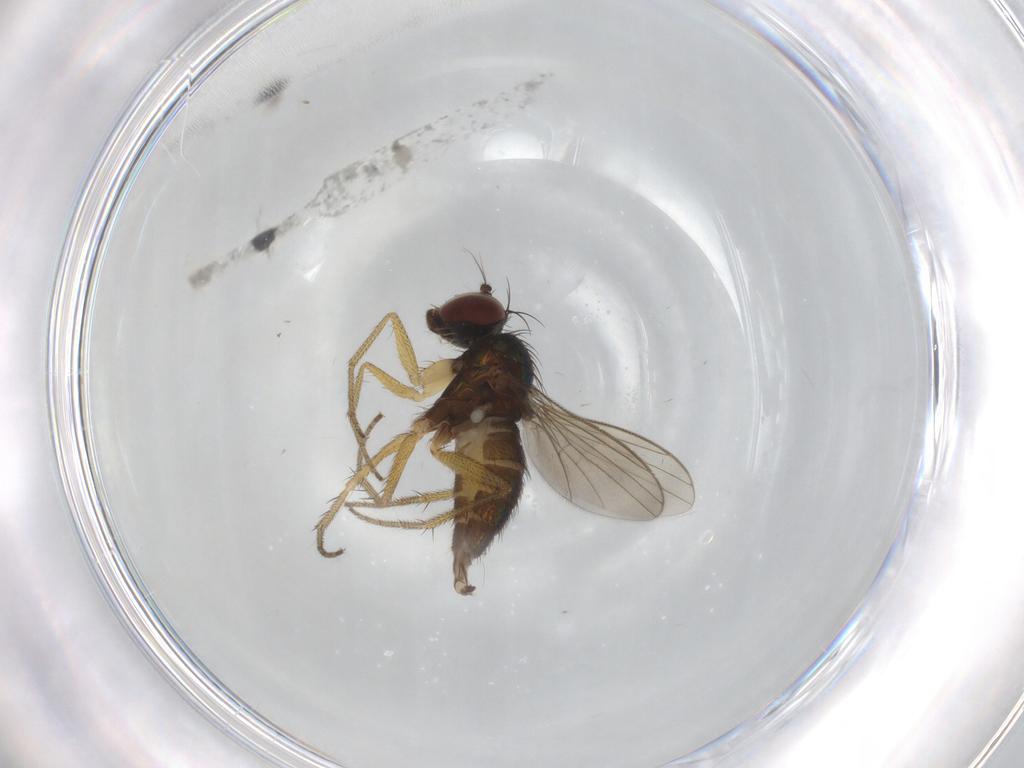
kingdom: Animalia
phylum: Arthropoda
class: Insecta
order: Diptera
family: Dolichopodidae
